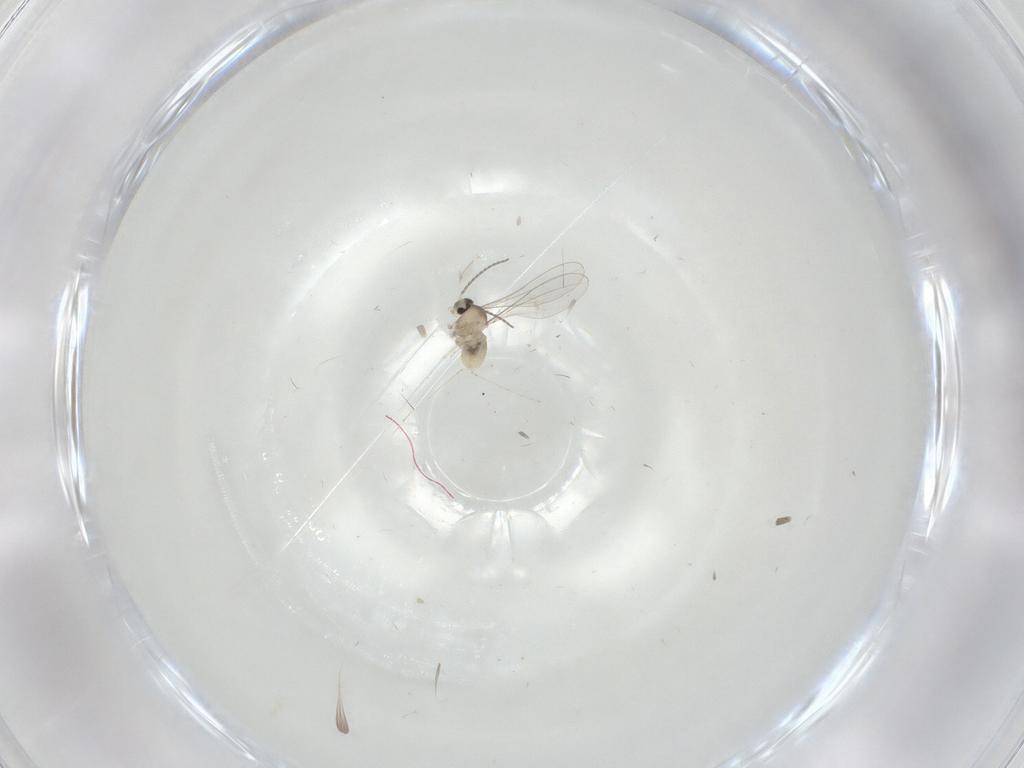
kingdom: Animalia
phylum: Arthropoda
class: Insecta
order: Diptera
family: Cecidomyiidae
